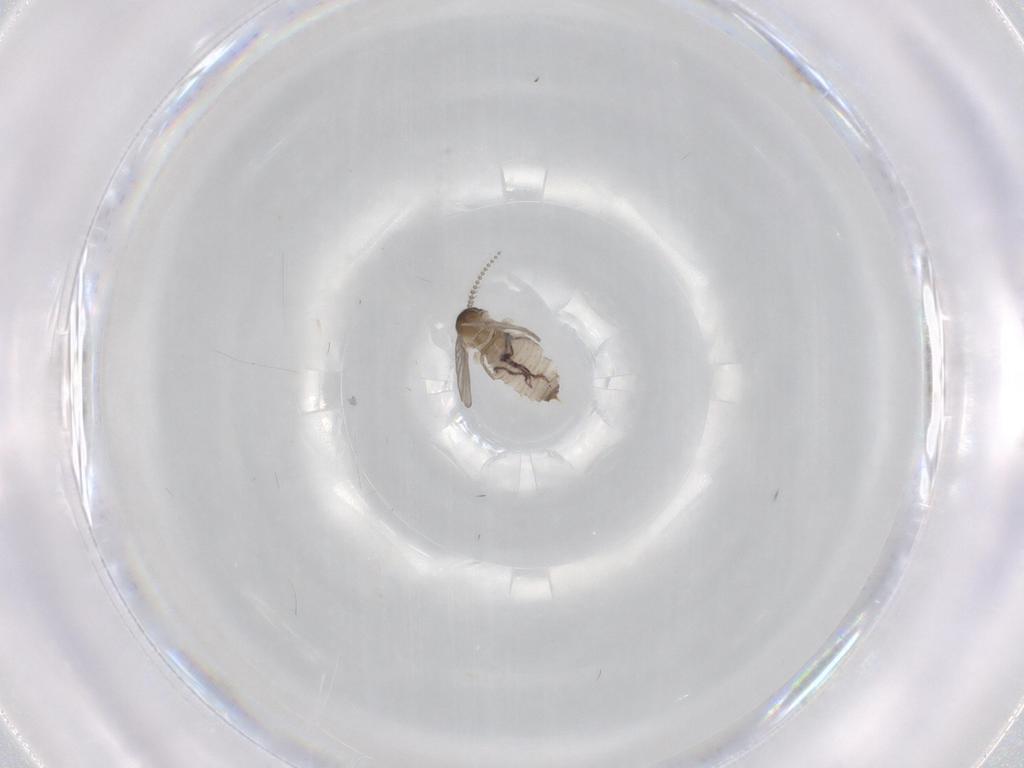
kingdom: Animalia
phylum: Arthropoda
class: Insecta
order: Diptera
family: Psychodidae
